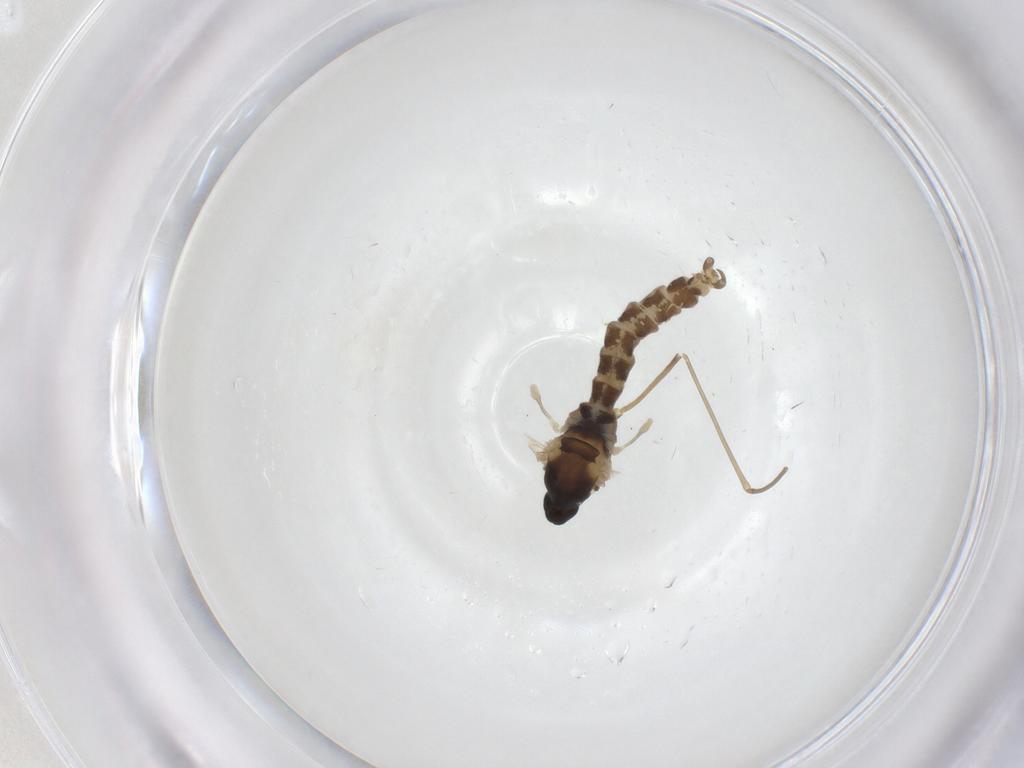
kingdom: Animalia
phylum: Arthropoda
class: Insecta
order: Diptera
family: Cecidomyiidae
